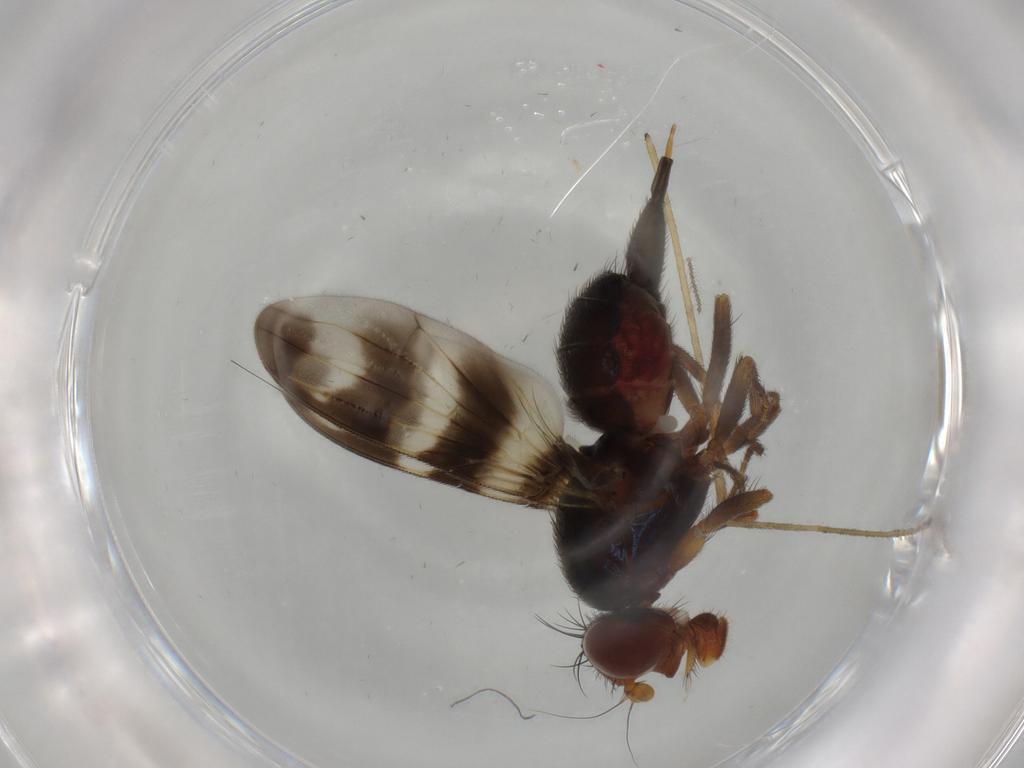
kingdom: Animalia
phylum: Arthropoda
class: Insecta
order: Diptera
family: Ulidiidae
